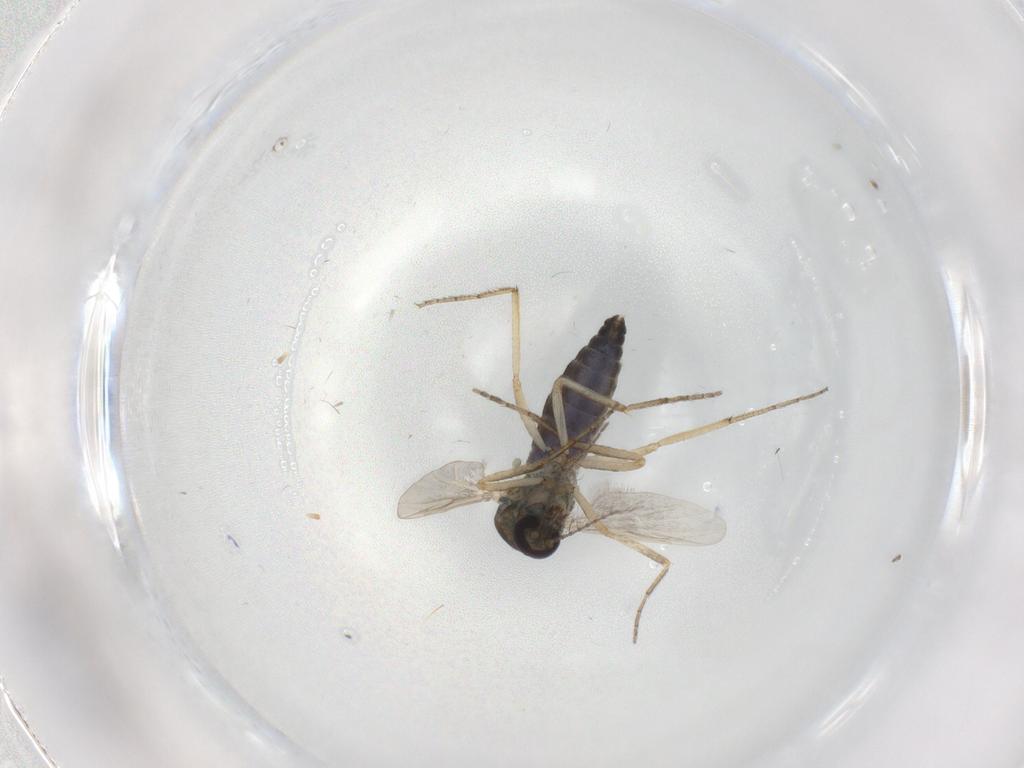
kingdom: Animalia
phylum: Arthropoda
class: Insecta
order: Diptera
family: Ceratopogonidae
